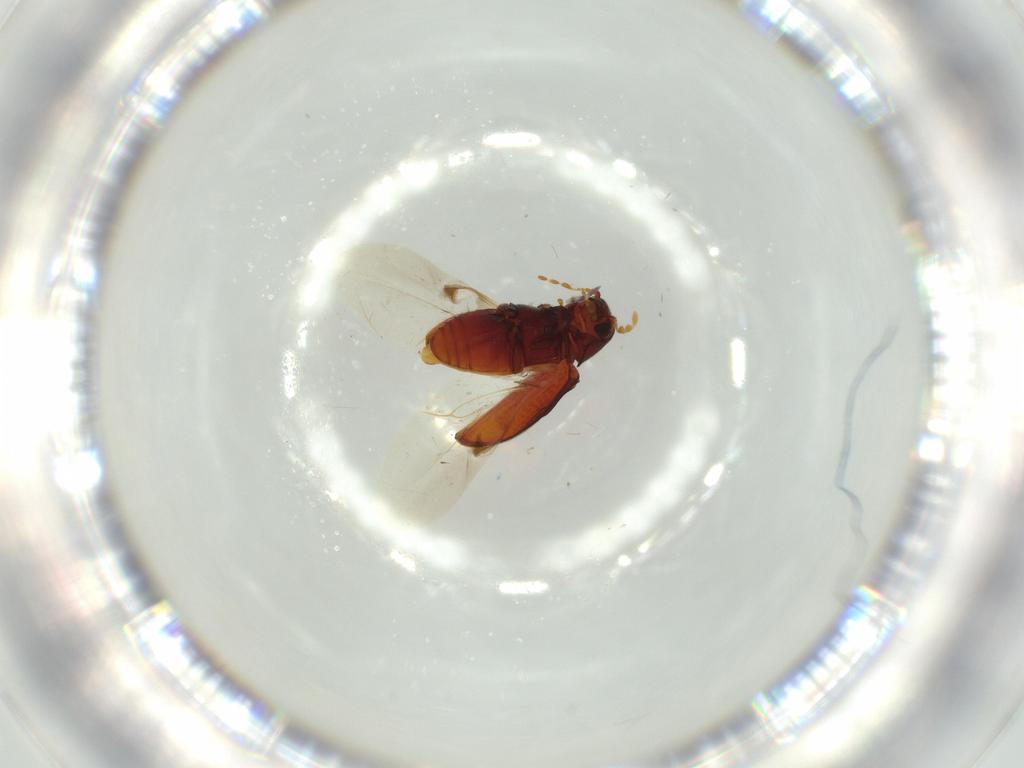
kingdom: Animalia
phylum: Arthropoda
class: Insecta
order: Coleoptera
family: Ptinidae
